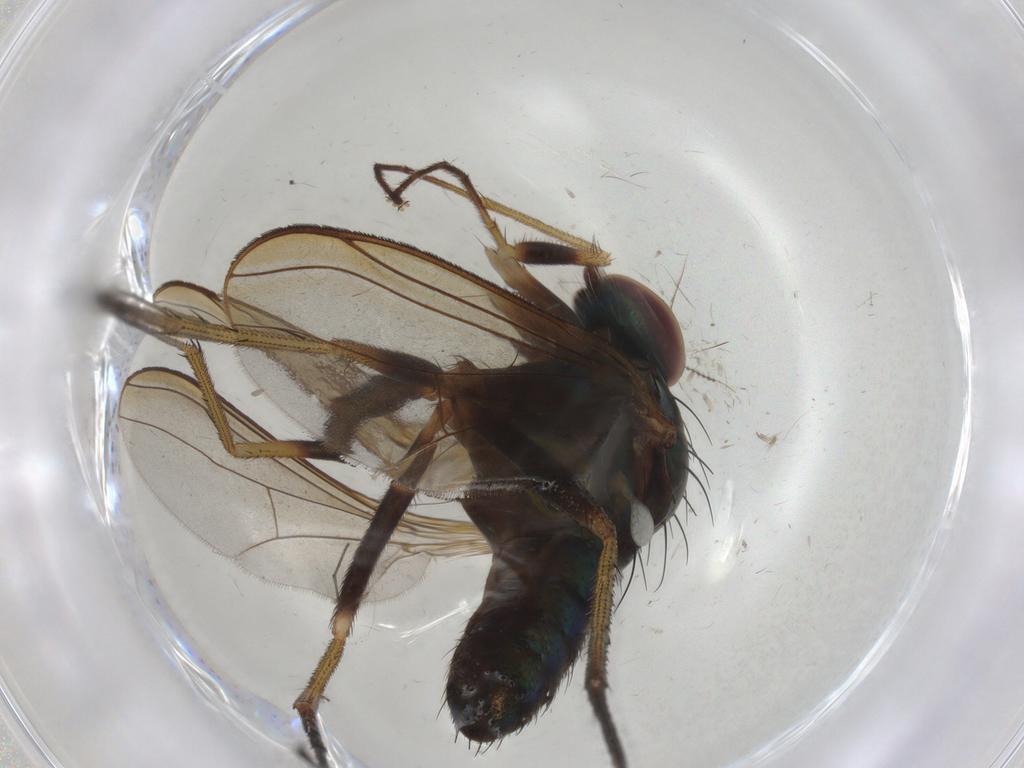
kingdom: Animalia
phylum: Arthropoda
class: Insecta
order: Diptera
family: Dolichopodidae
